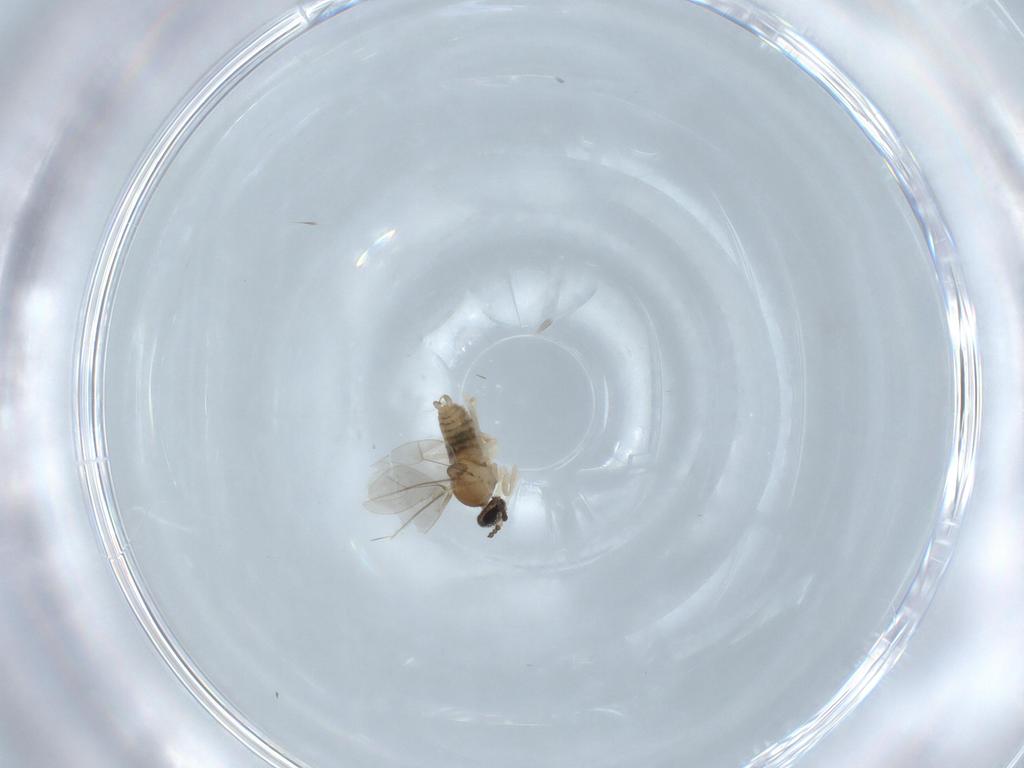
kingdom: Animalia
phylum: Arthropoda
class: Insecta
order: Diptera
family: Cecidomyiidae
